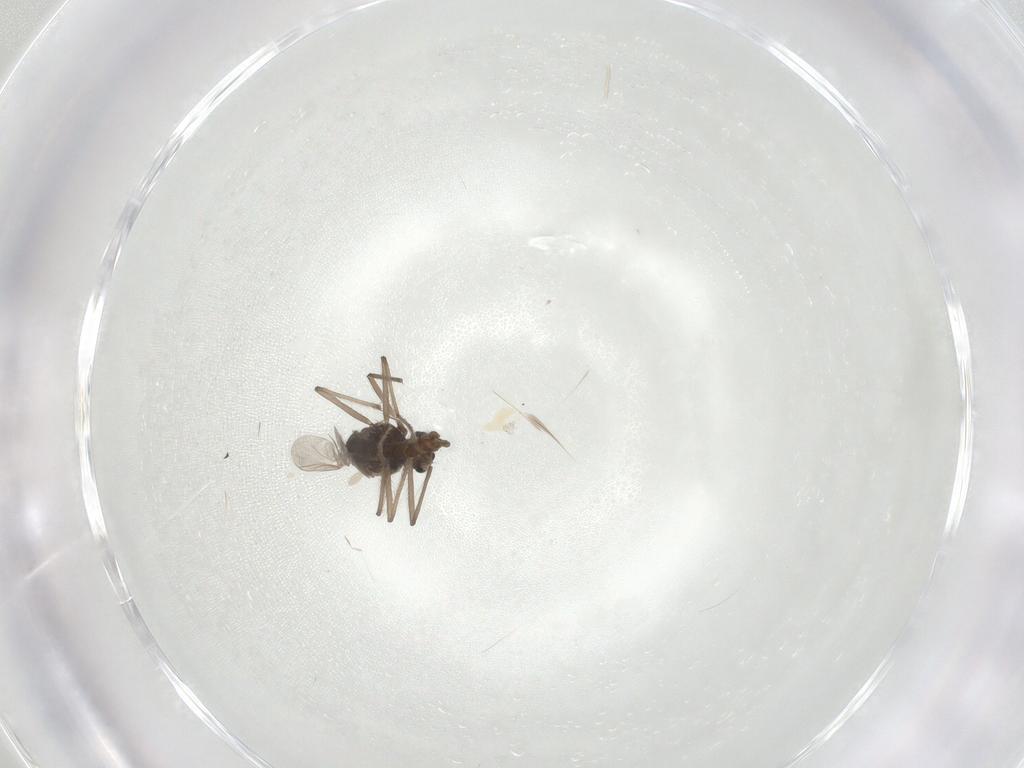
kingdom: Animalia
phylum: Arthropoda
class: Insecta
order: Diptera
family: Chironomidae
